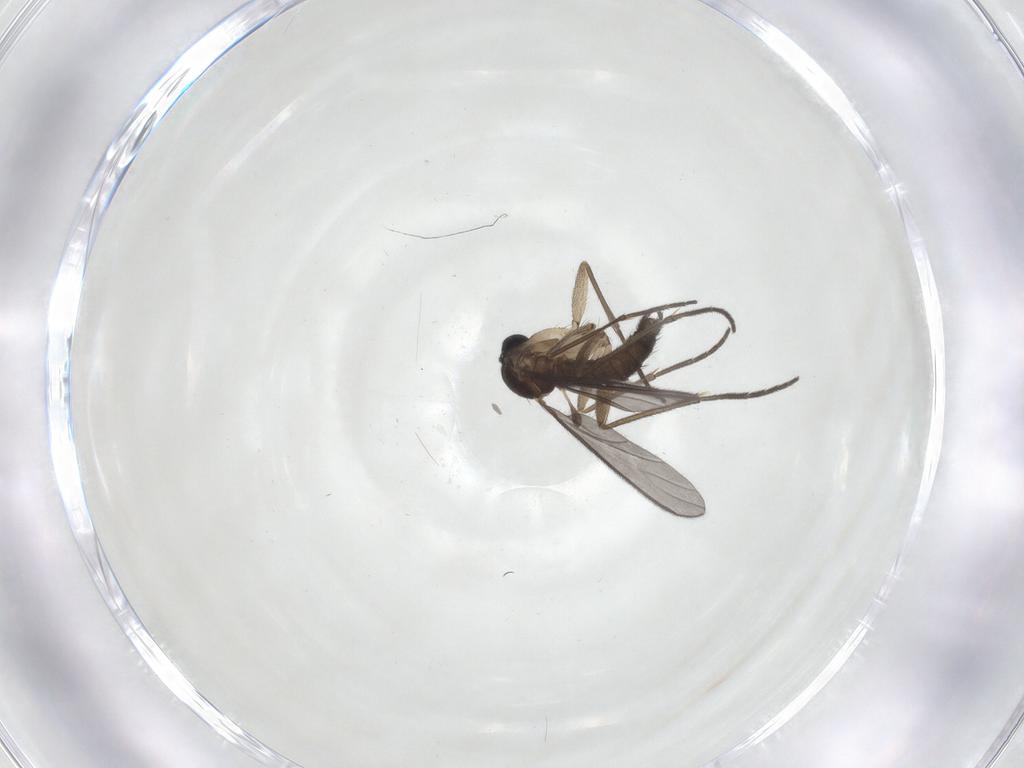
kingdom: Animalia
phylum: Arthropoda
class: Insecta
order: Diptera
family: Sciaridae
